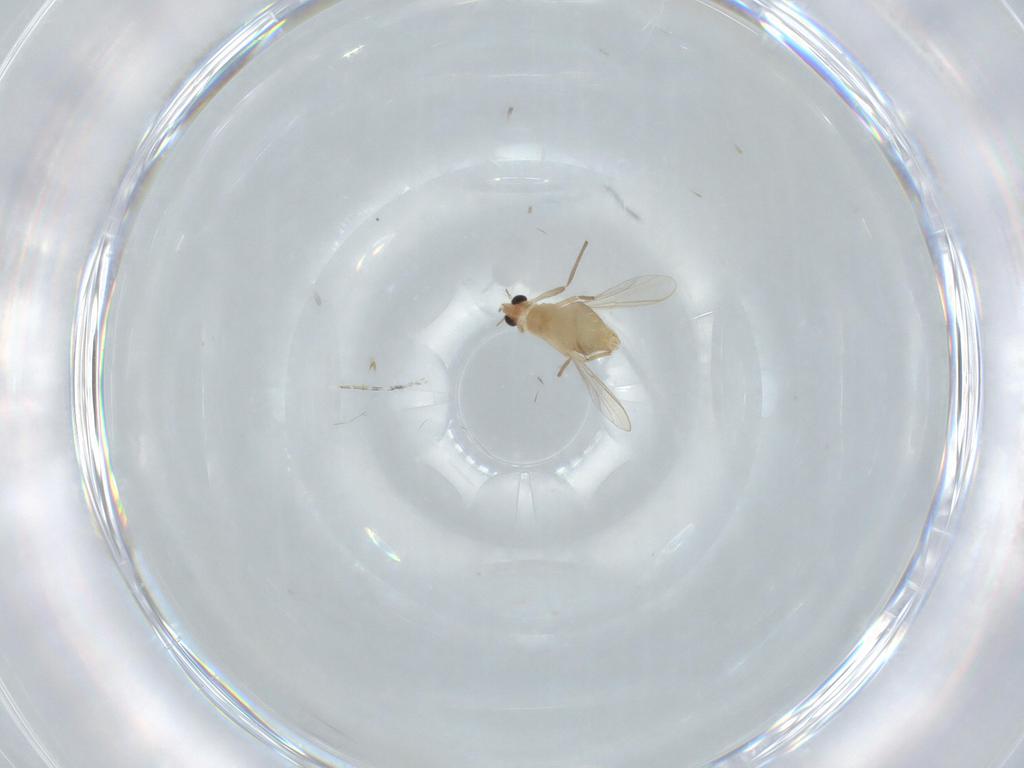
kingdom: Animalia
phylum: Arthropoda
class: Insecta
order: Diptera
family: Chironomidae
